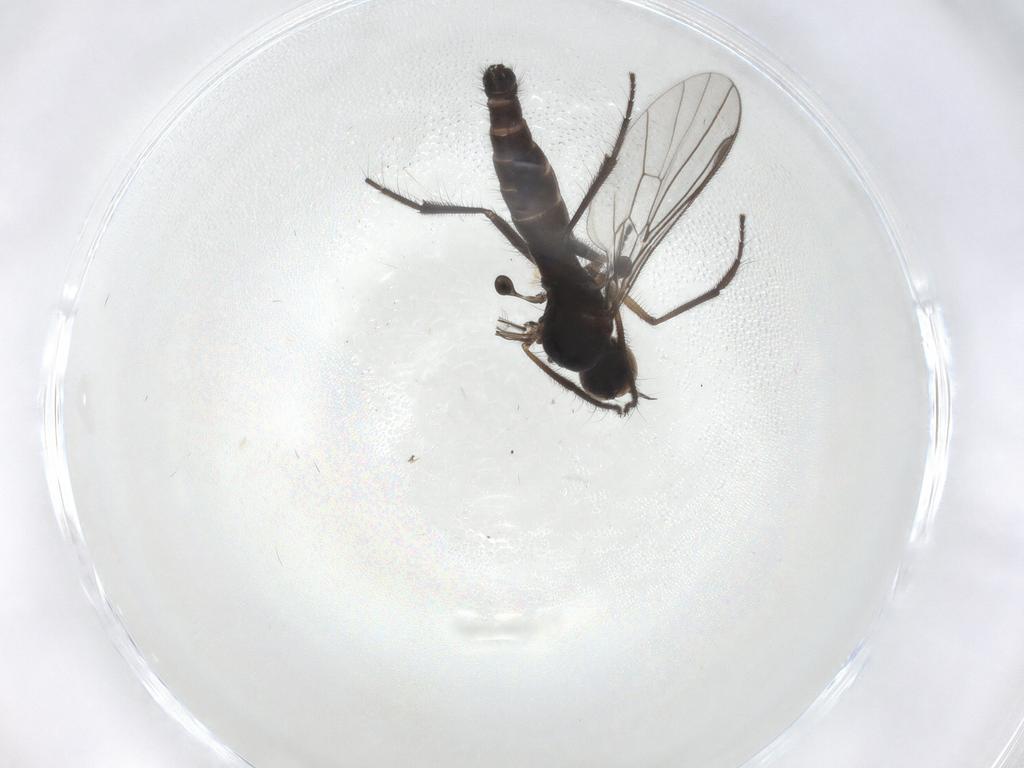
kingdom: Animalia
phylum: Arthropoda
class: Insecta
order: Diptera
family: Empididae
